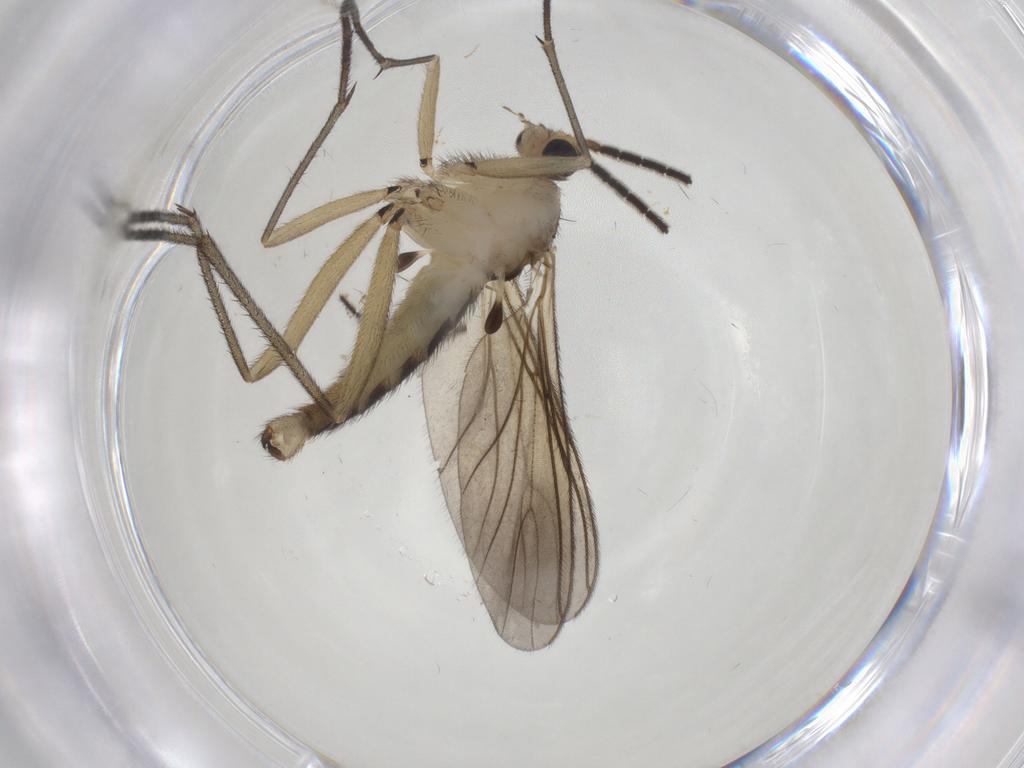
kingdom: Animalia
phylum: Arthropoda
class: Insecta
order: Diptera
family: Sciaridae
